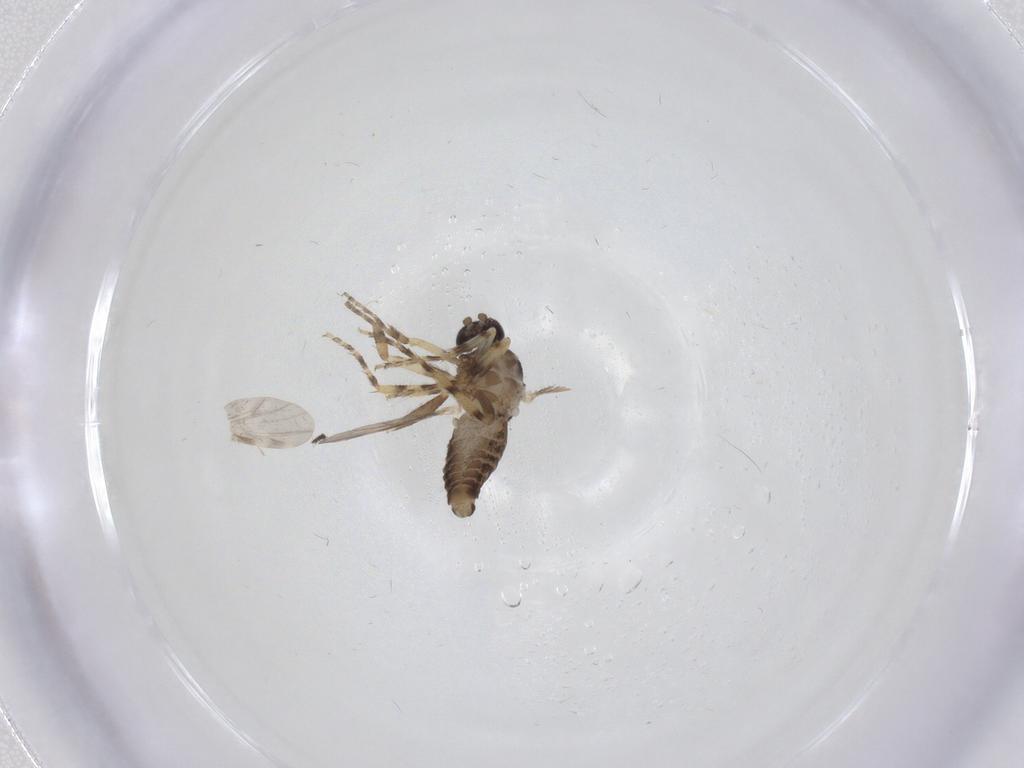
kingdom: Animalia
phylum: Arthropoda
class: Insecta
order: Diptera
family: Ceratopogonidae
